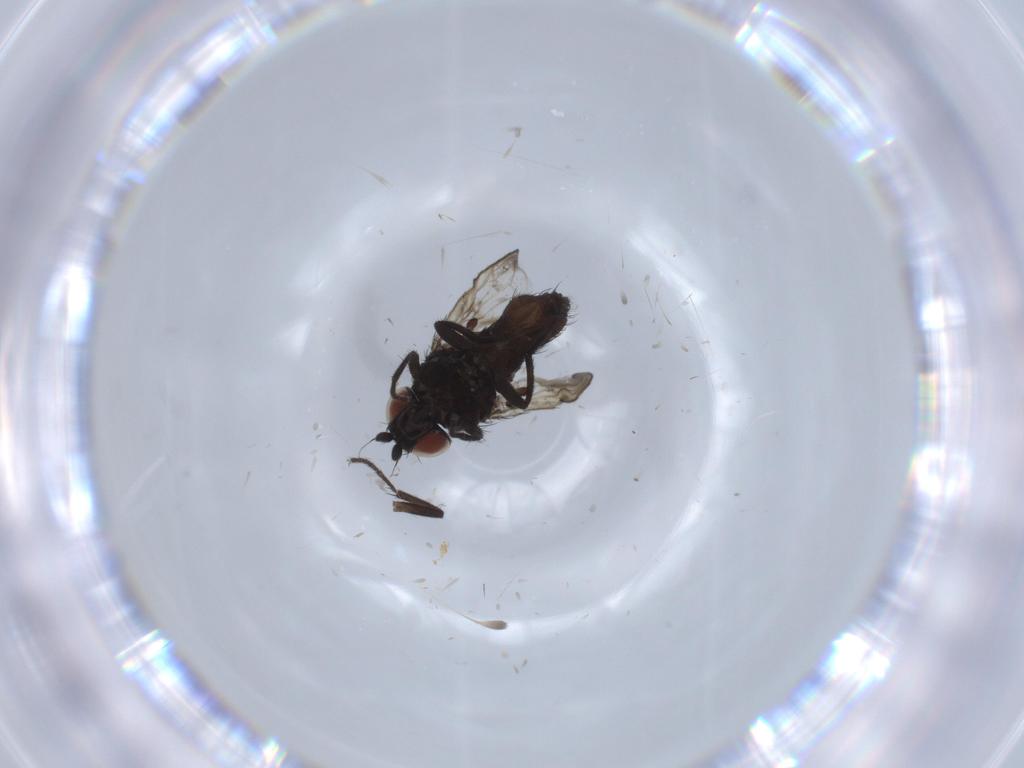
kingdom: Animalia
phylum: Arthropoda
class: Insecta
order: Diptera
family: Milichiidae
